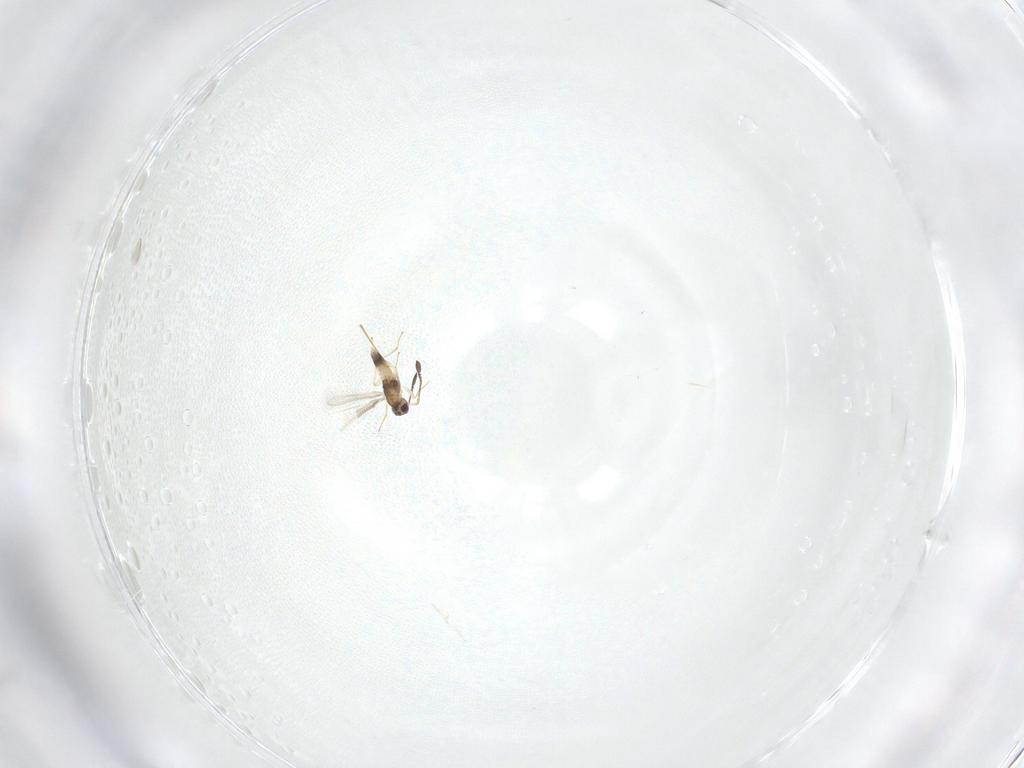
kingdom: Animalia
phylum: Arthropoda
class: Insecta
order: Hymenoptera
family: Mymaridae
